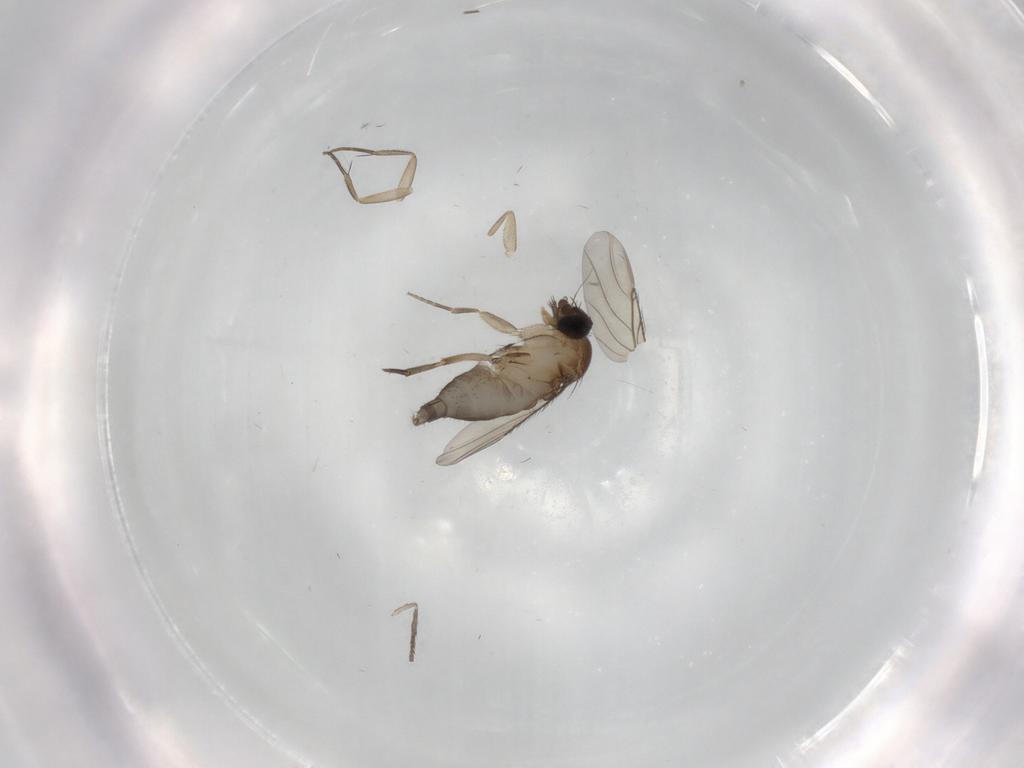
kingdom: Animalia
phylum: Arthropoda
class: Insecta
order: Diptera
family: Phoridae
